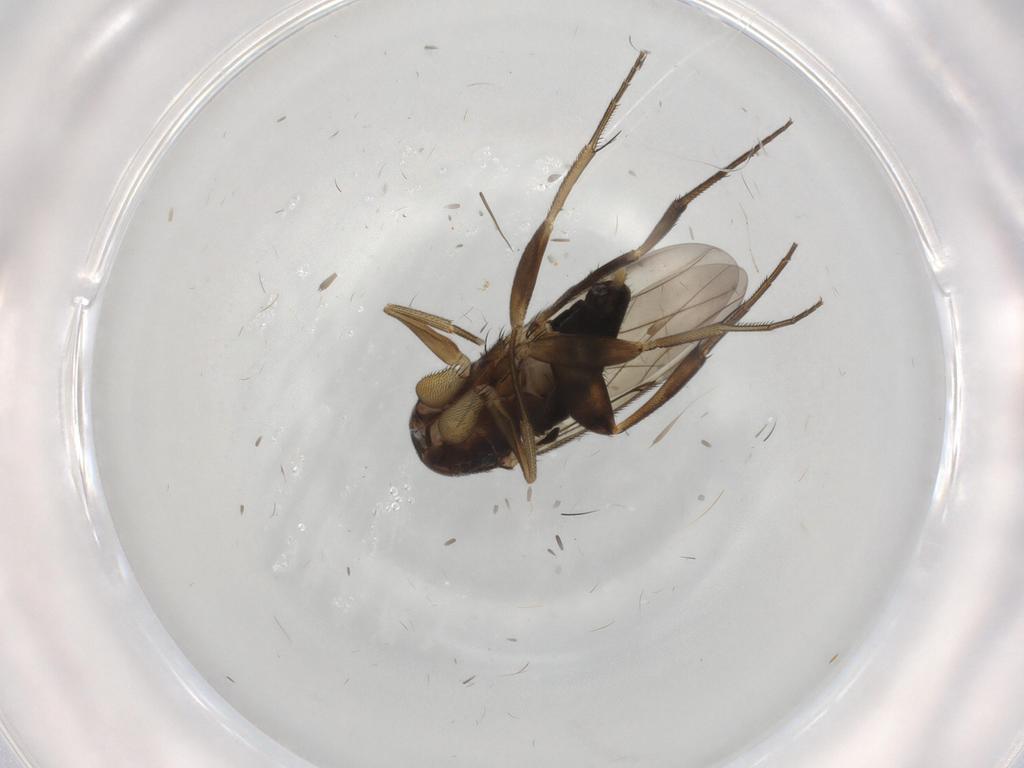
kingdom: Animalia
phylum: Arthropoda
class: Insecta
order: Diptera
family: Phoridae
